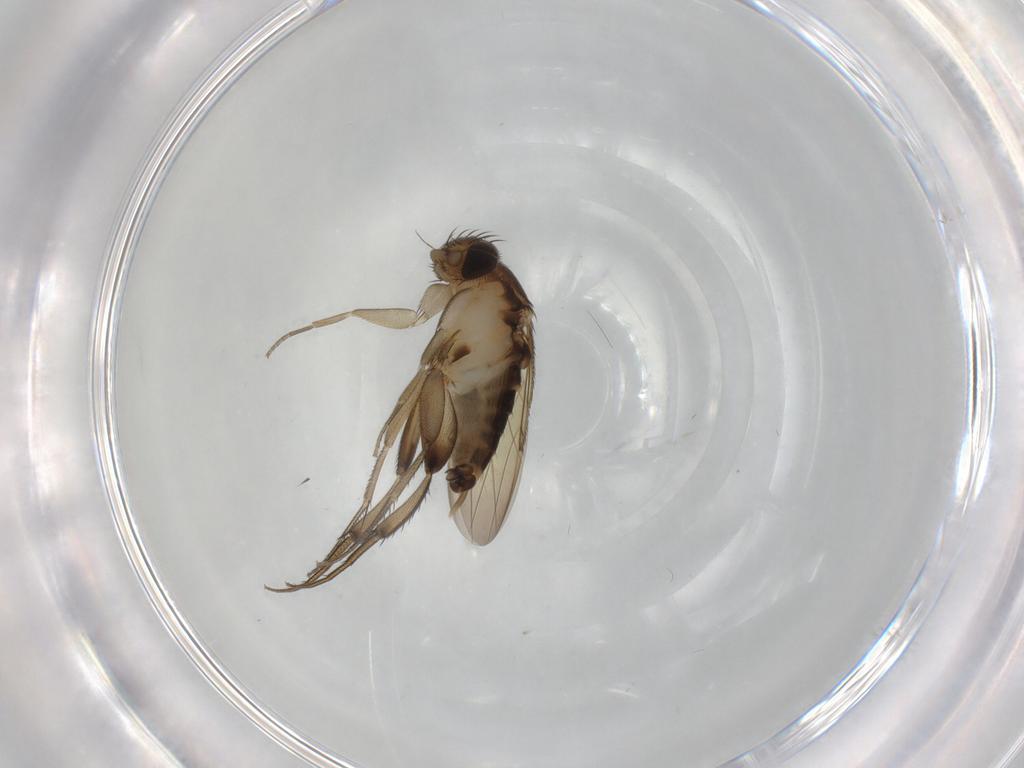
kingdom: Animalia
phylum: Arthropoda
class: Insecta
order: Diptera
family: Phoridae
